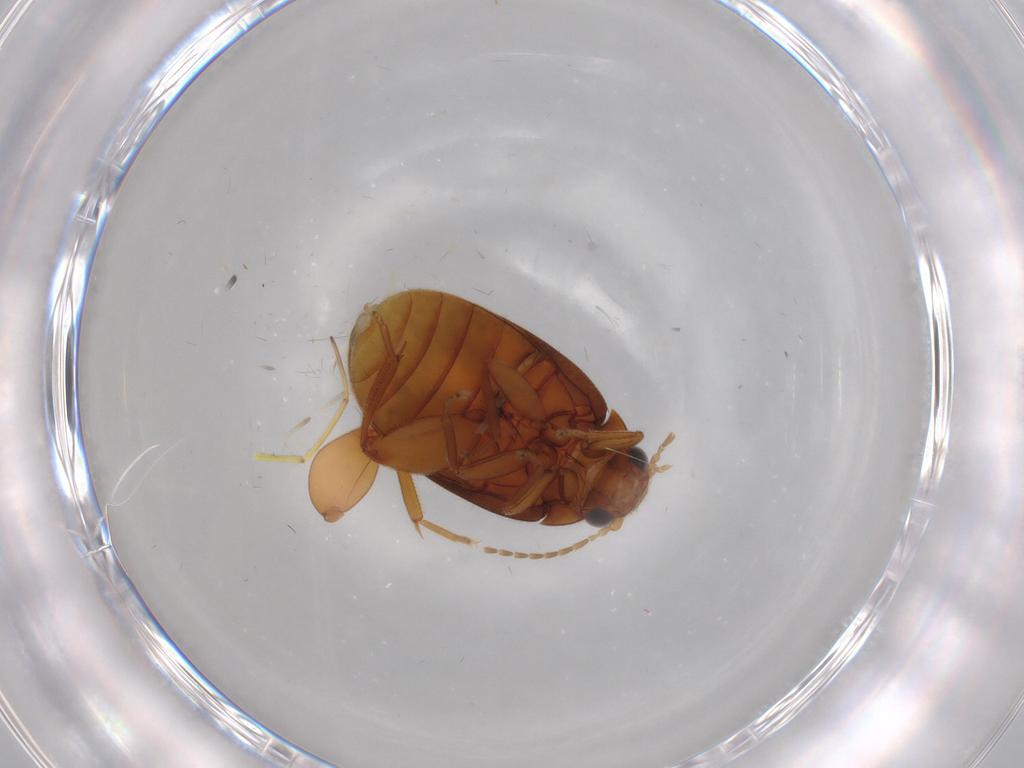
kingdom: Animalia
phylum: Arthropoda
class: Insecta
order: Coleoptera
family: Scirtidae
